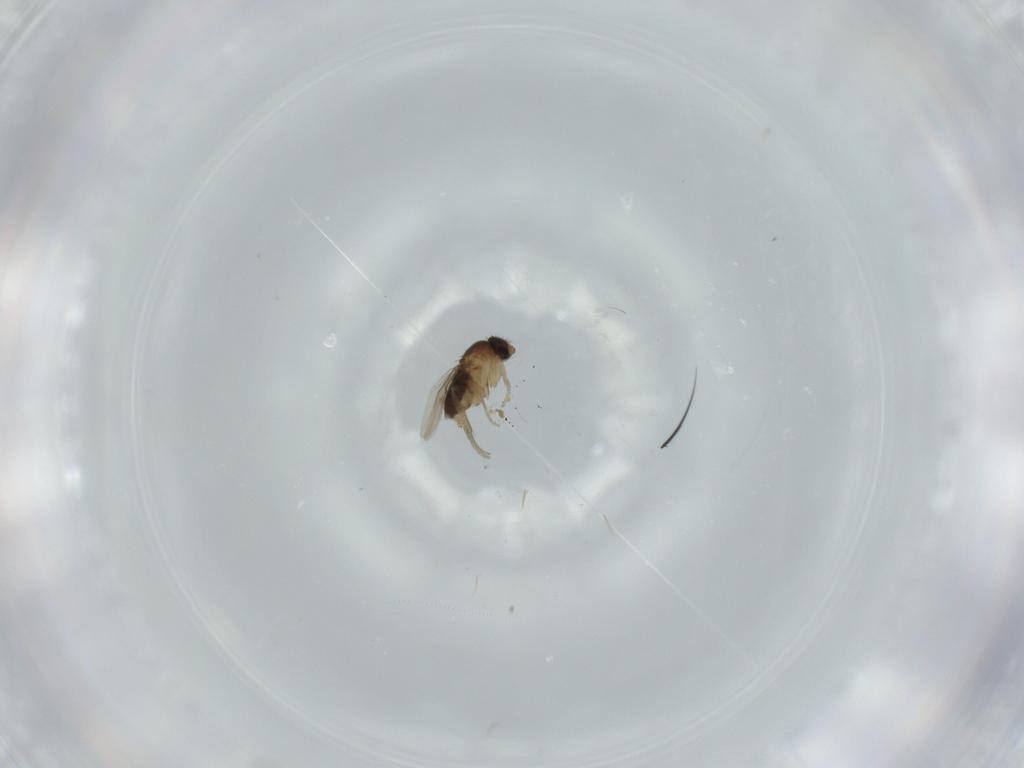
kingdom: Animalia
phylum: Arthropoda
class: Insecta
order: Diptera
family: Phoridae
